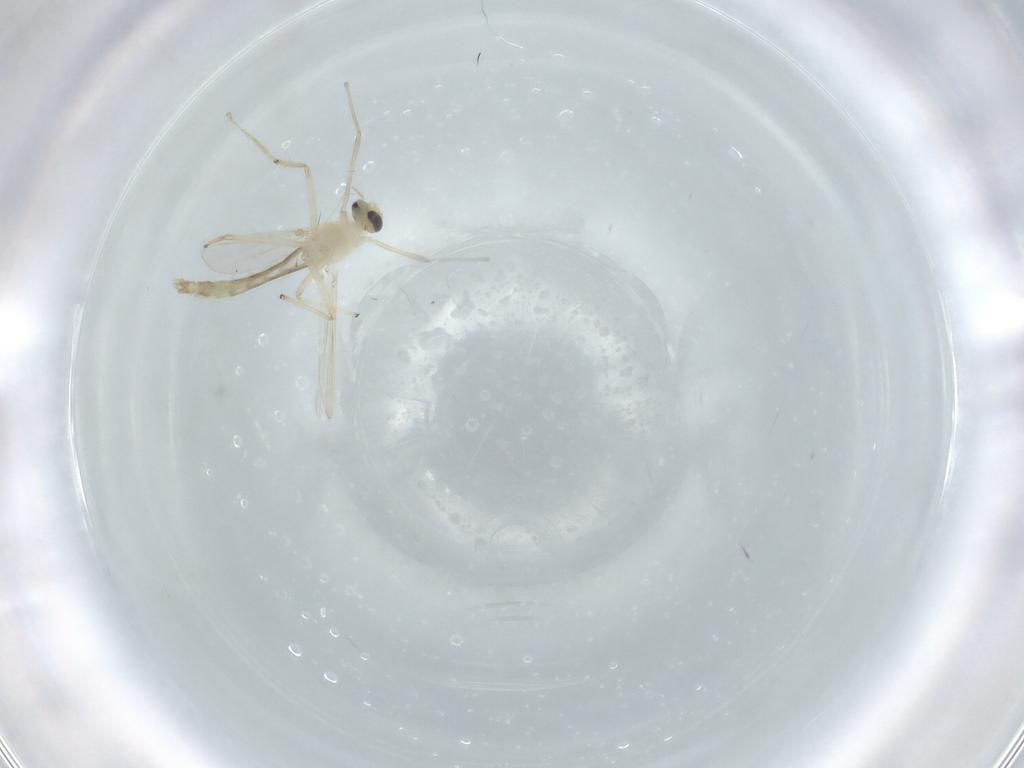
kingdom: Animalia
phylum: Arthropoda
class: Insecta
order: Diptera
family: Chironomidae
